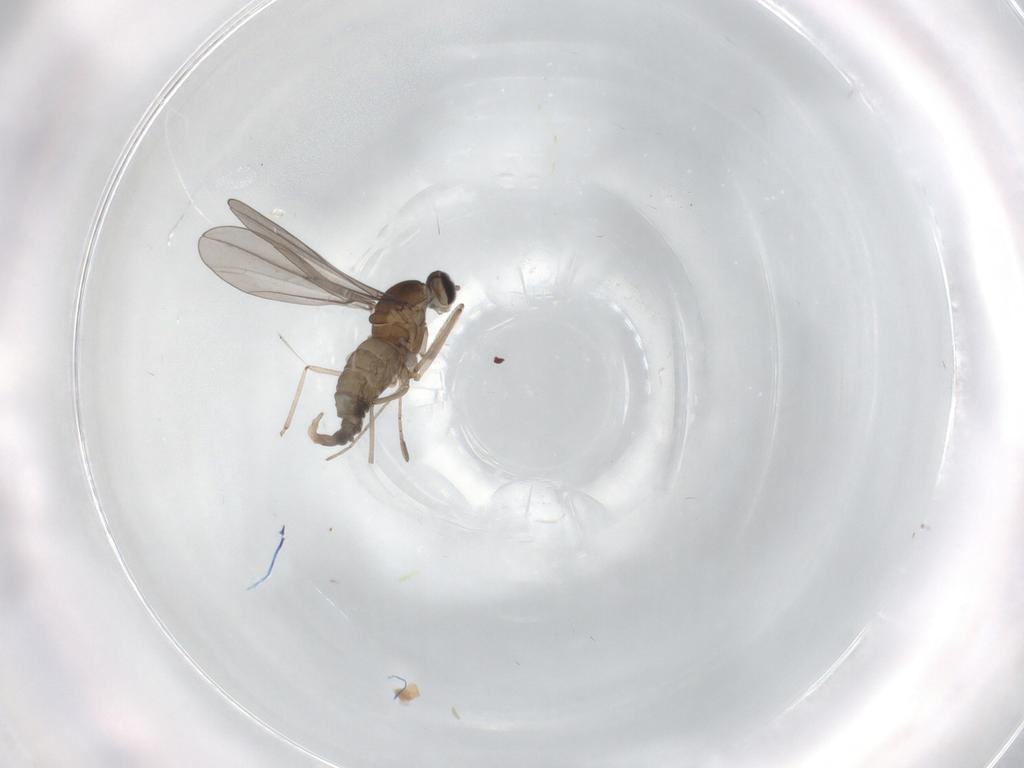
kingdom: Animalia
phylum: Arthropoda
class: Insecta
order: Diptera
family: Cecidomyiidae
